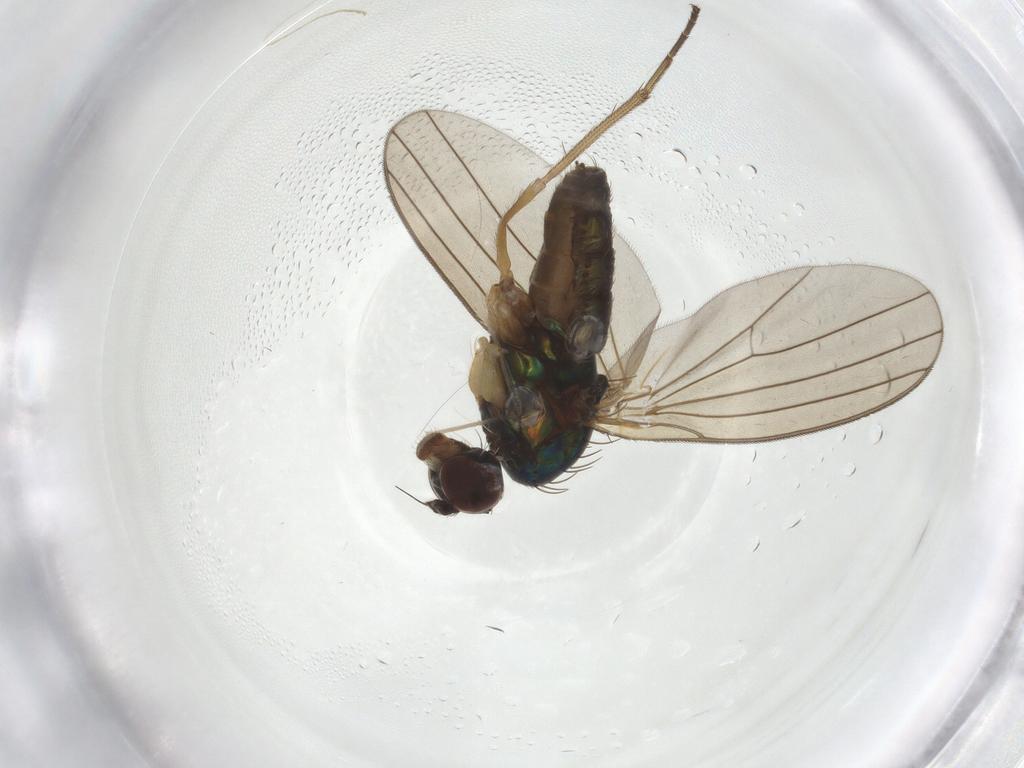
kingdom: Animalia
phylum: Arthropoda
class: Insecta
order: Diptera
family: Dolichopodidae
